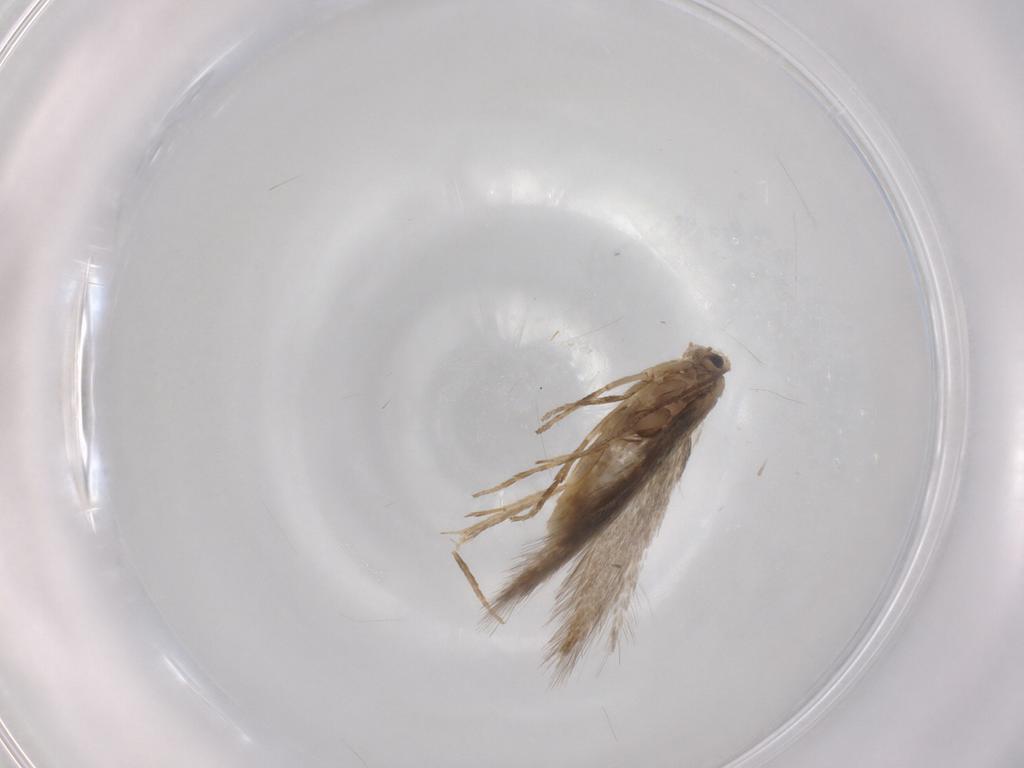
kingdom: Animalia
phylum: Arthropoda
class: Insecta
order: Lepidoptera
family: Nepticulidae
